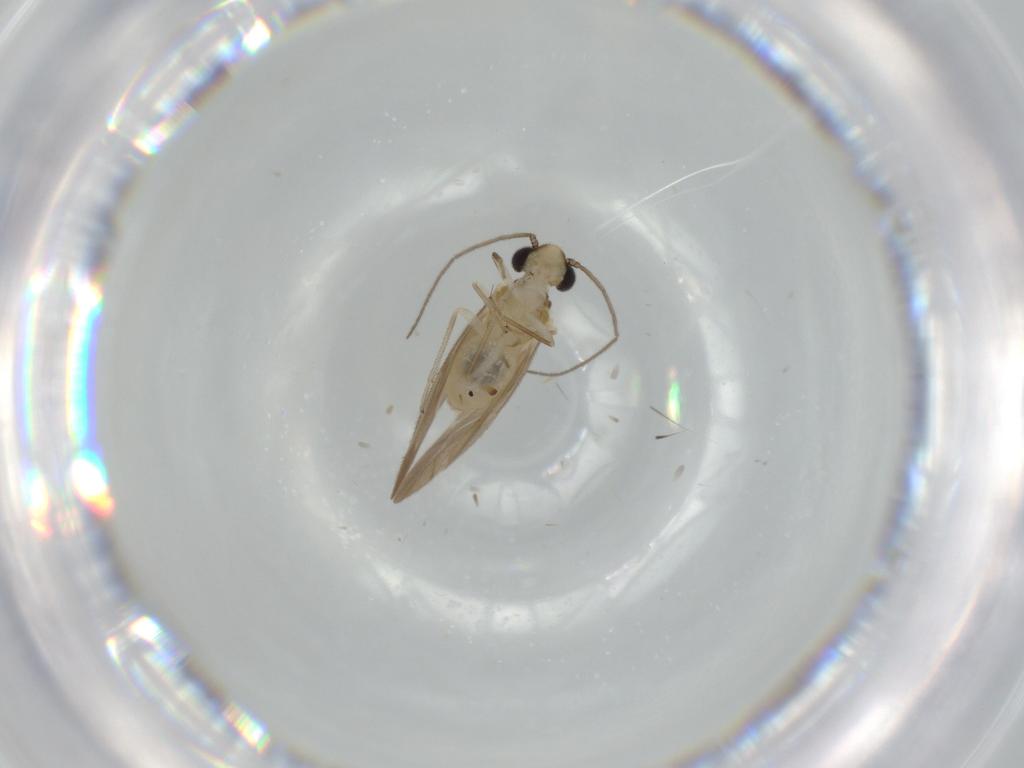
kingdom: Animalia
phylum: Arthropoda
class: Insecta
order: Psocodea
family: Caeciliusidae
